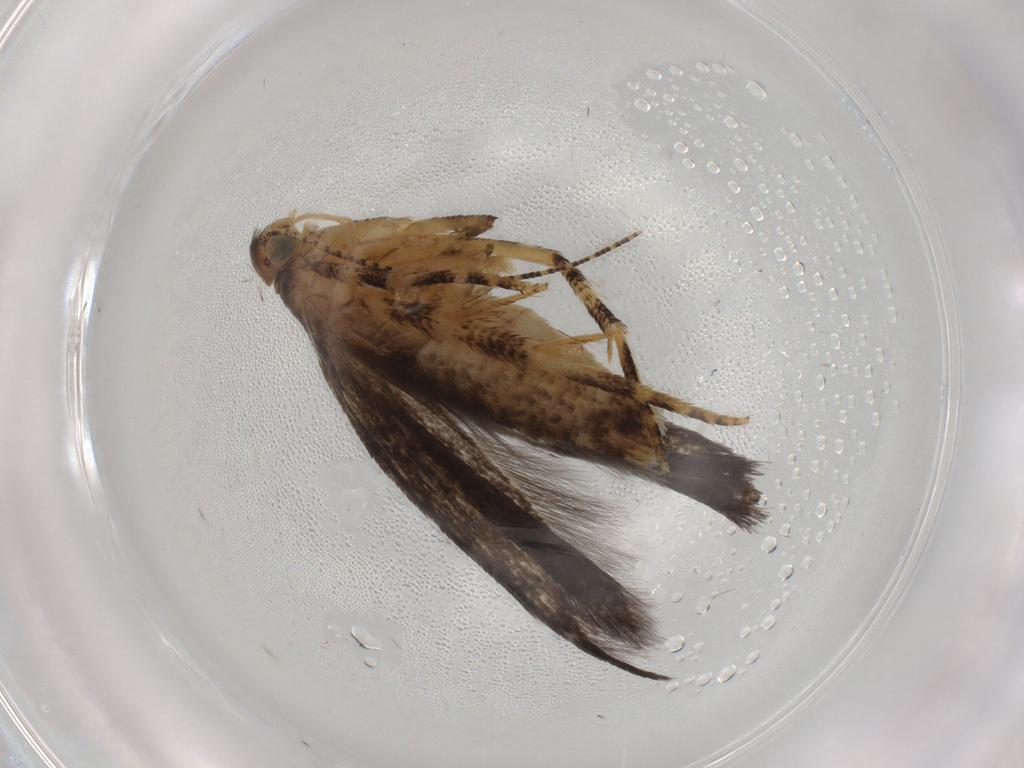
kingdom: Animalia
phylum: Arthropoda
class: Insecta
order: Lepidoptera
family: Gelechiidae
